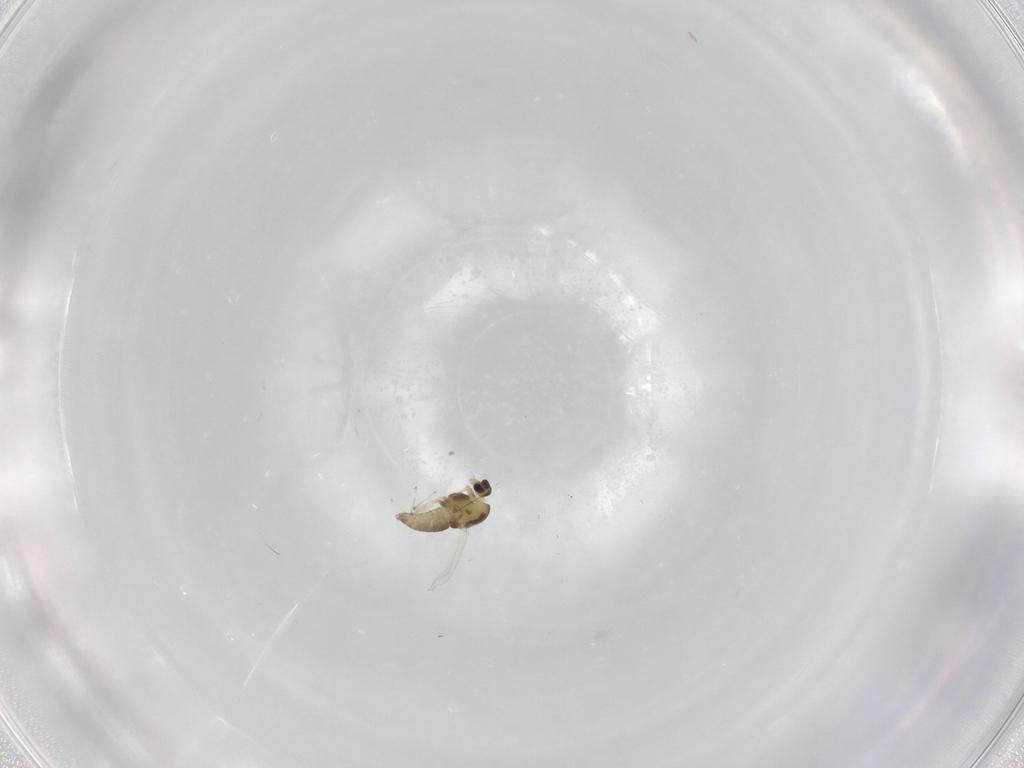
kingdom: Animalia
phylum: Arthropoda
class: Insecta
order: Diptera
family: Chironomidae
